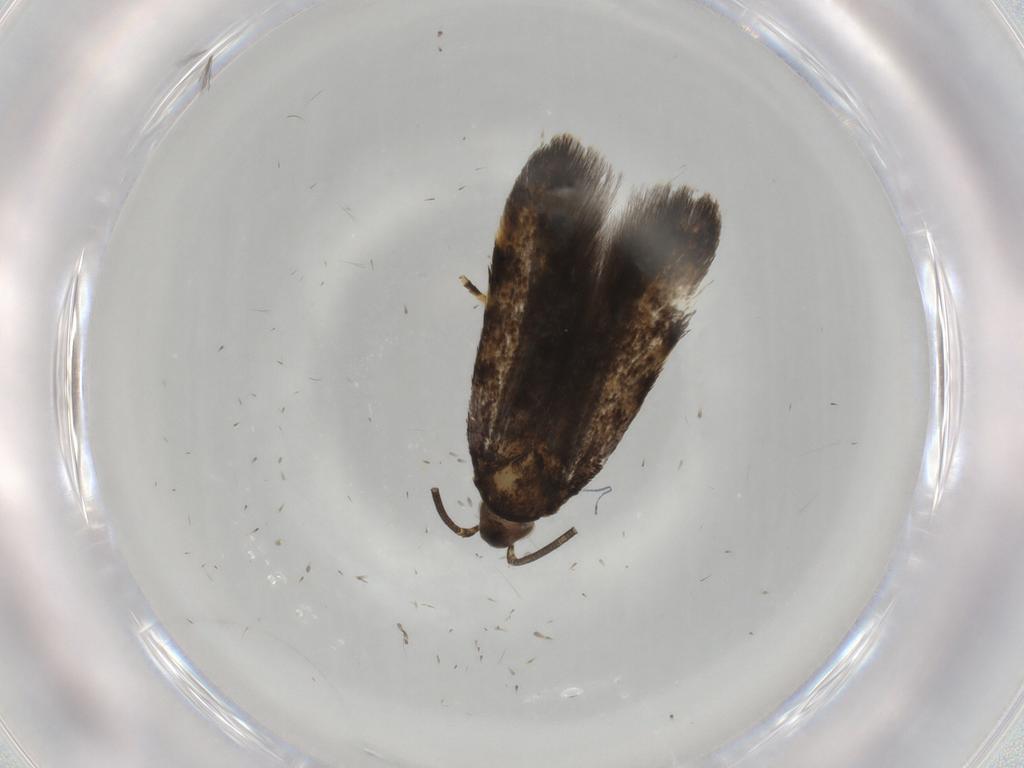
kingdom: Animalia
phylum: Arthropoda
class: Insecta
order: Lepidoptera
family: Oecophoridae
